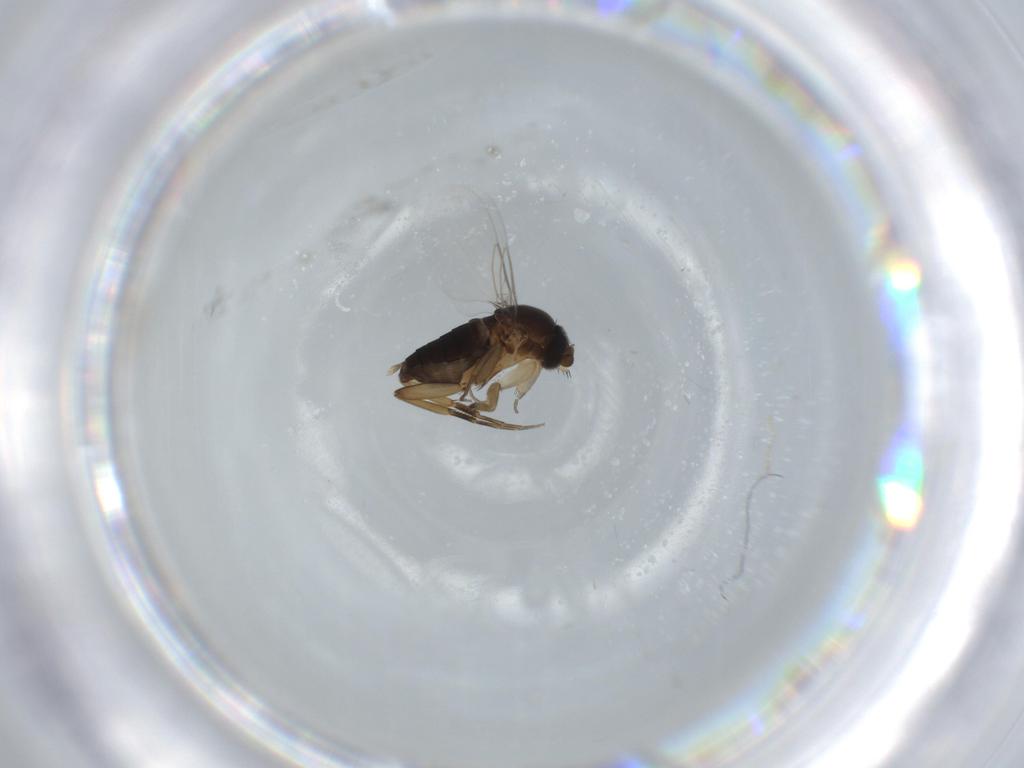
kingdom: Animalia
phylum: Arthropoda
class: Insecta
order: Diptera
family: Phoridae
